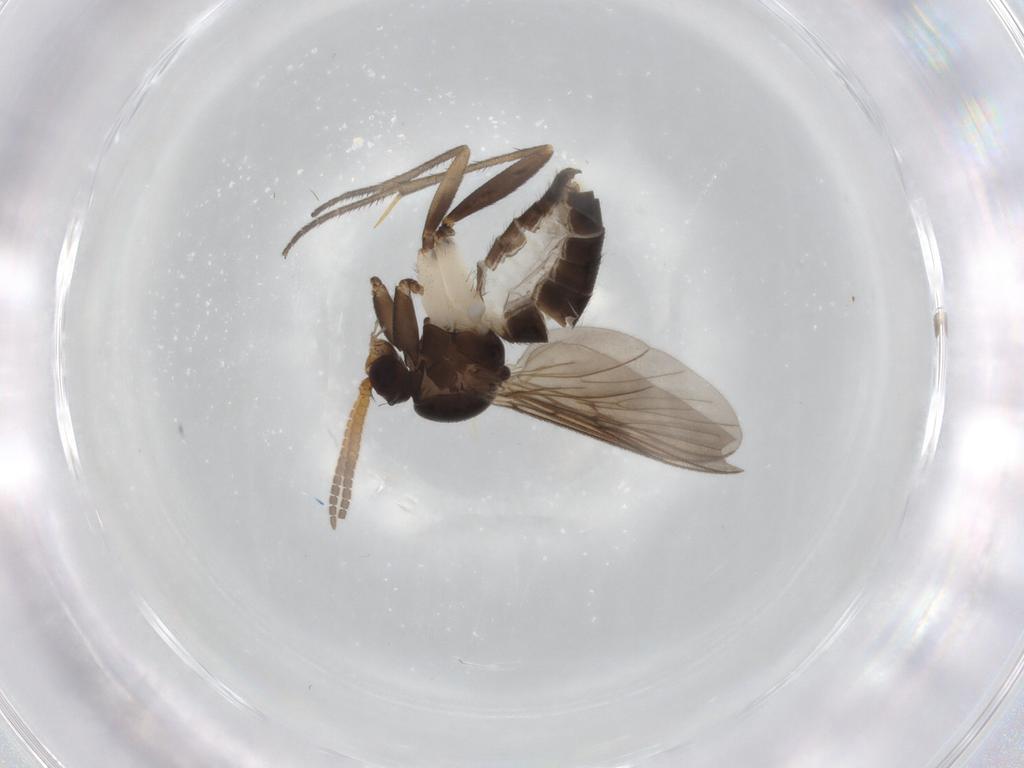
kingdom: Animalia
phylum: Arthropoda
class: Insecta
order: Diptera
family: Mycetophilidae
